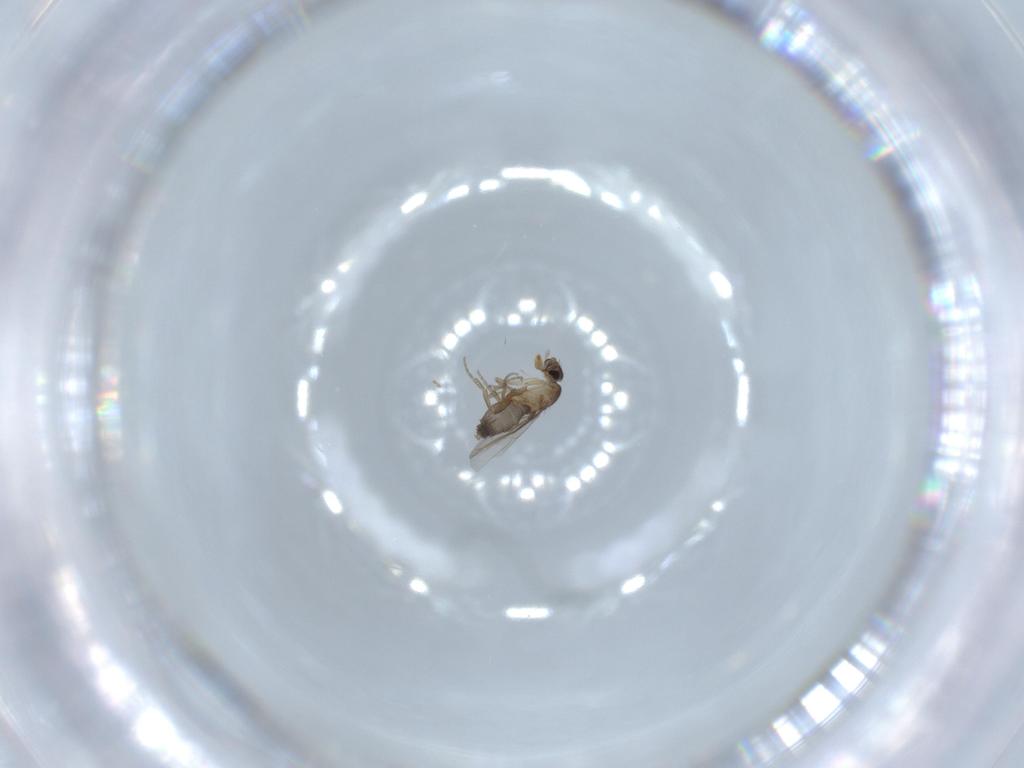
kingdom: Animalia
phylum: Arthropoda
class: Insecta
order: Diptera
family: Phoridae
